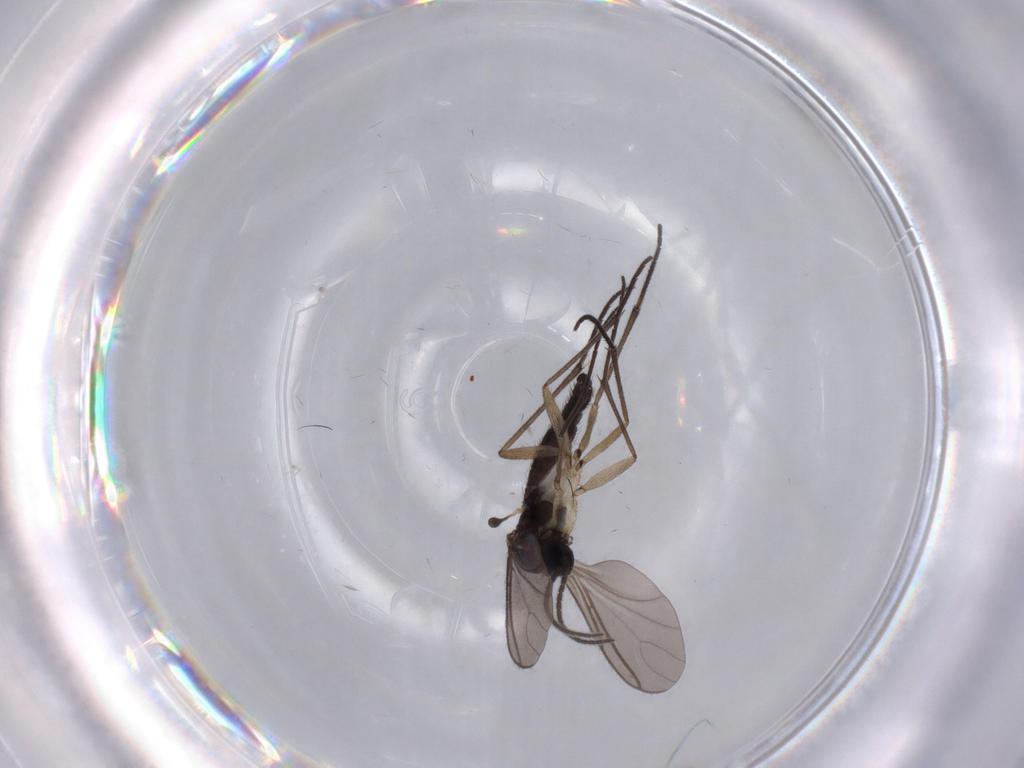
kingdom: Animalia
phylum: Arthropoda
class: Insecta
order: Diptera
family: Sciaridae
